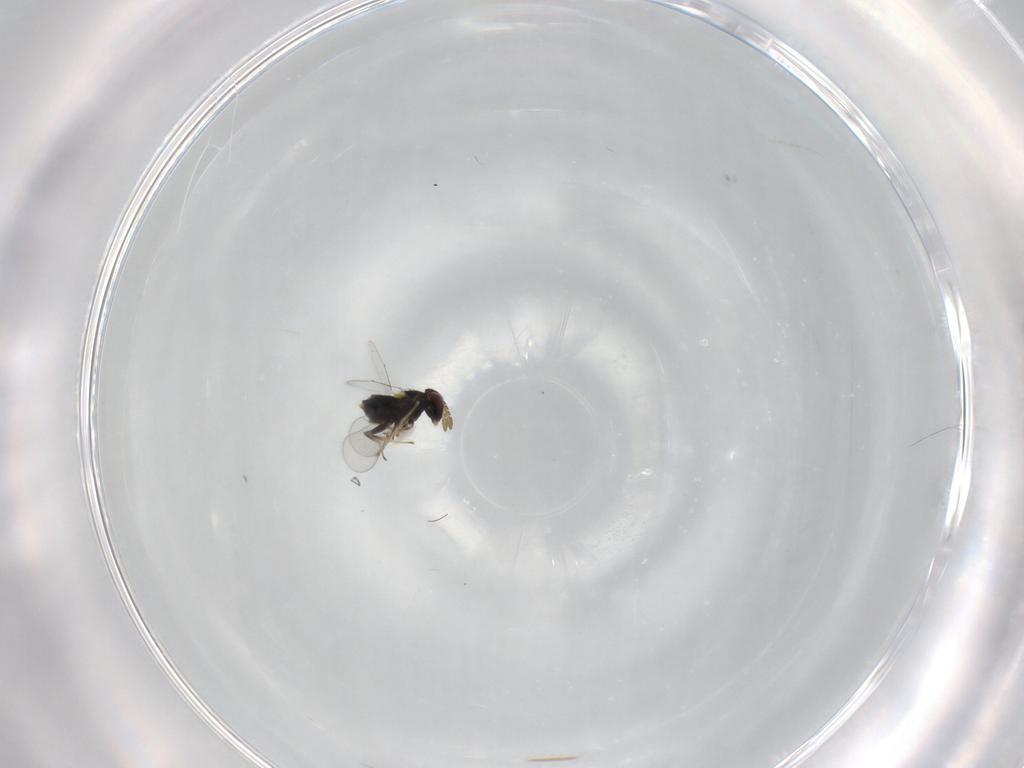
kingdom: Animalia
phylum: Arthropoda
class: Insecta
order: Hymenoptera
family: Aphelinidae
